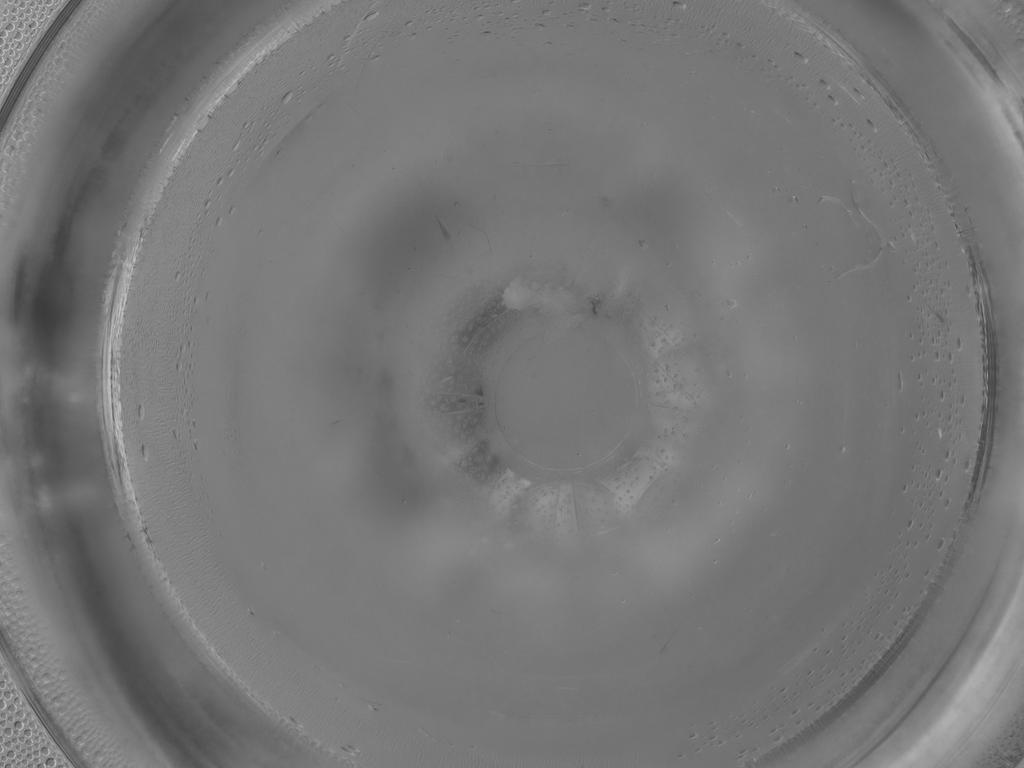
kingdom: Animalia
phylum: Arthropoda
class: Insecta
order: Diptera
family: Cecidomyiidae
